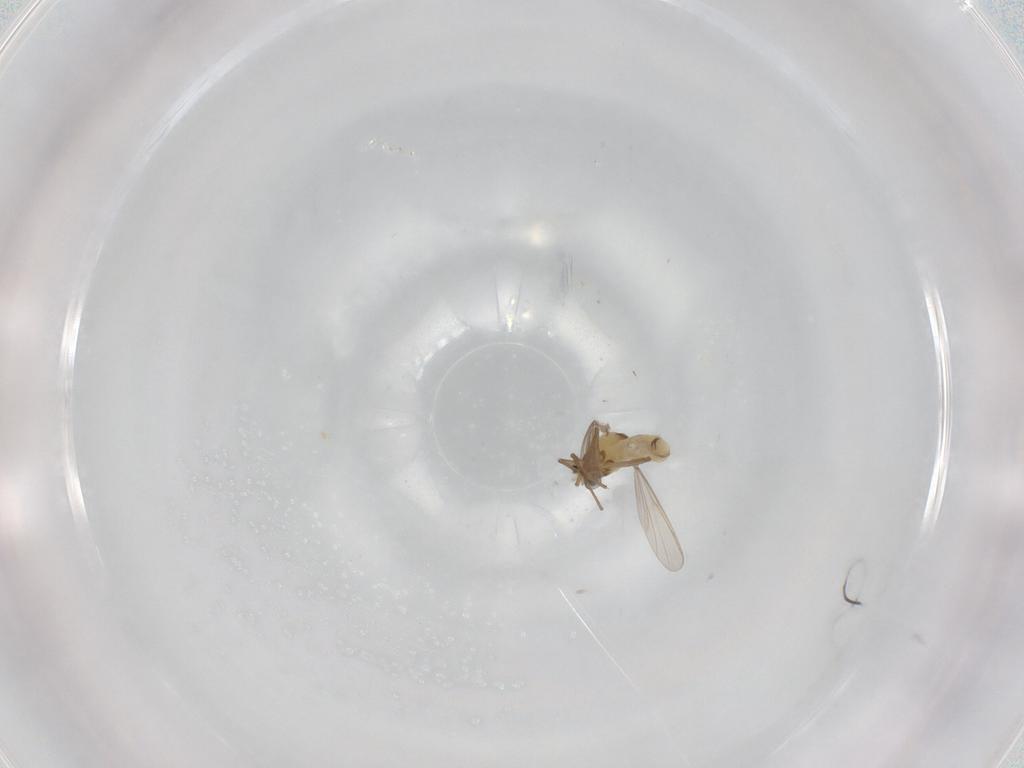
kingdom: Animalia
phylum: Arthropoda
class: Insecta
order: Diptera
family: Chironomidae
